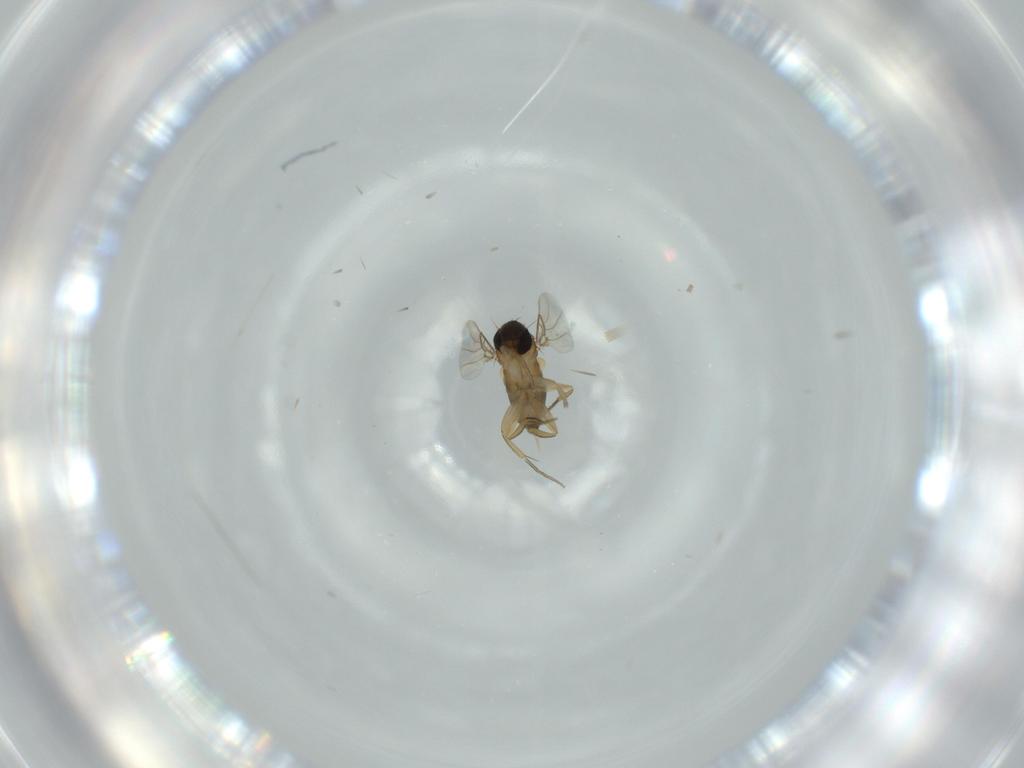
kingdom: Animalia
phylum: Arthropoda
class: Insecta
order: Diptera
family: Phoridae
